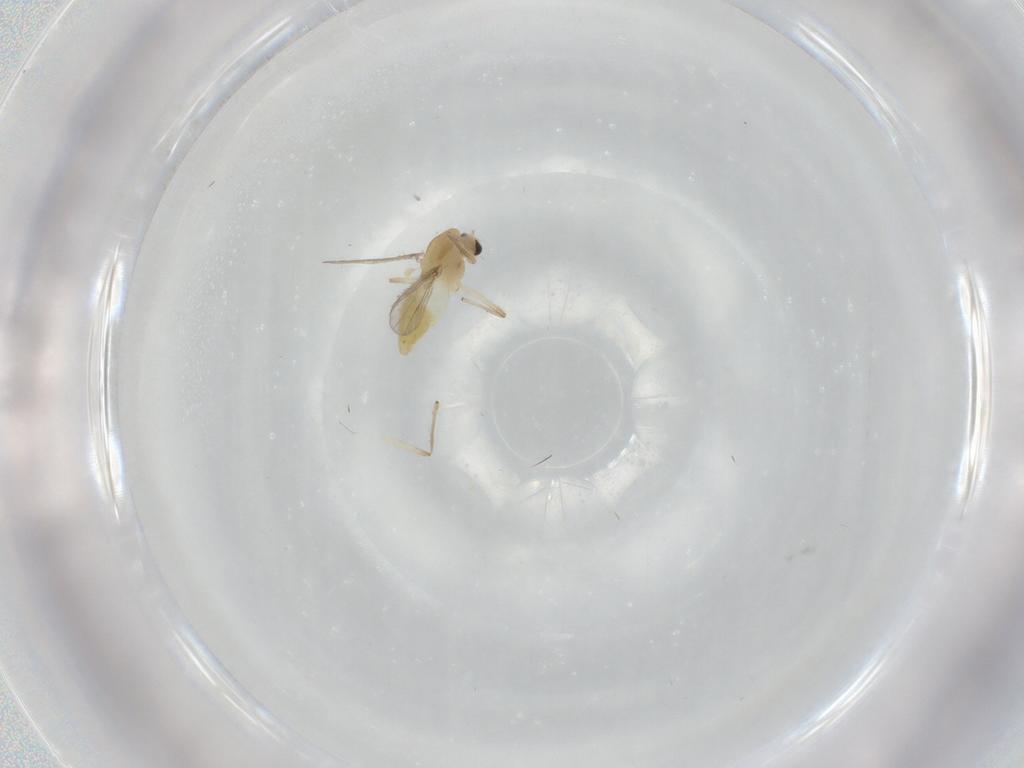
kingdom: Animalia
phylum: Arthropoda
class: Insecta
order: Diptera
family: Chironomidae
